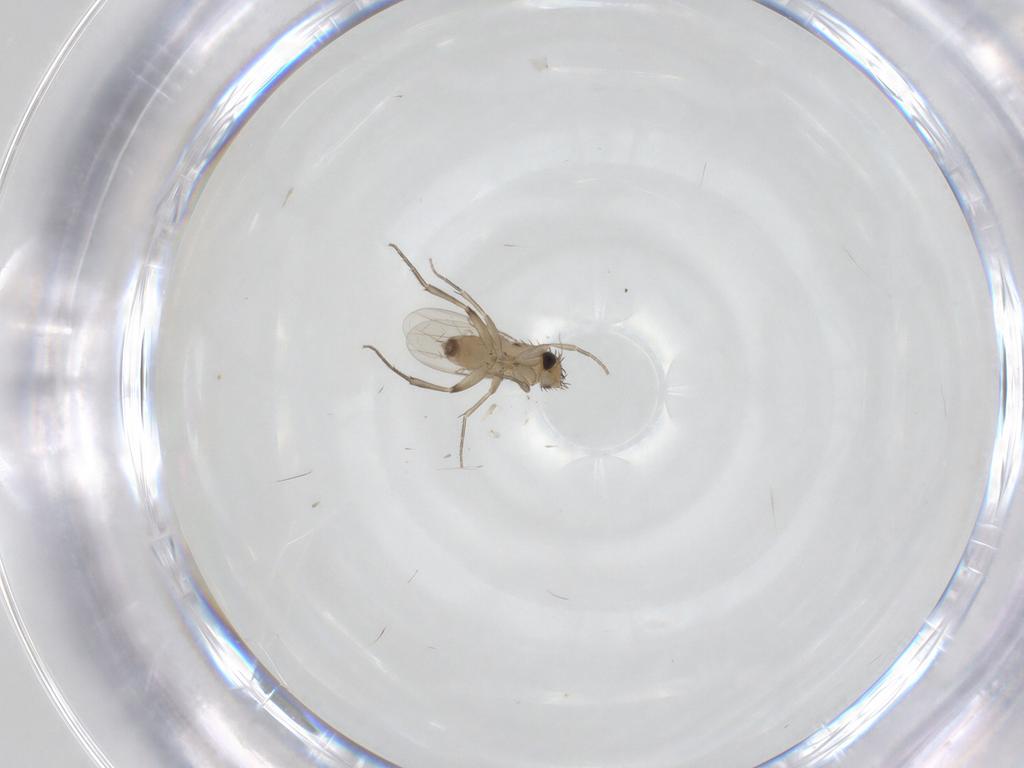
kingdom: Animalia
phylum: Arthropoda
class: Insecta
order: Diptera
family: Phoridae
